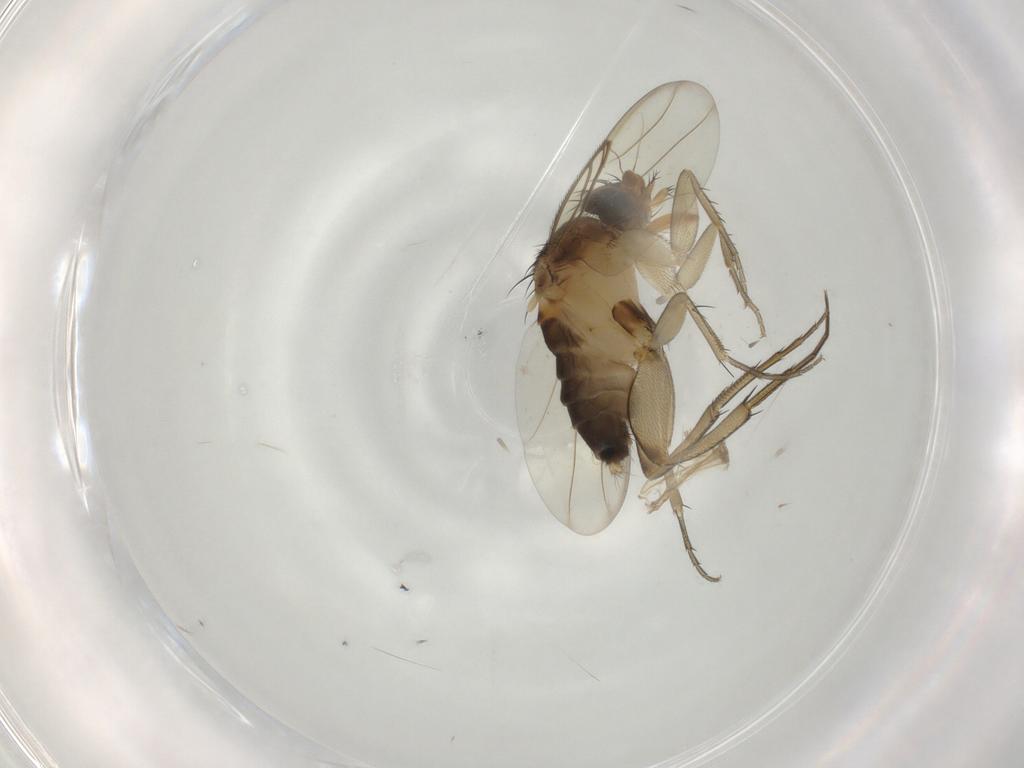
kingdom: Animalia
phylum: Arthropoda
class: Insecta
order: Diptera
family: Phoridae
